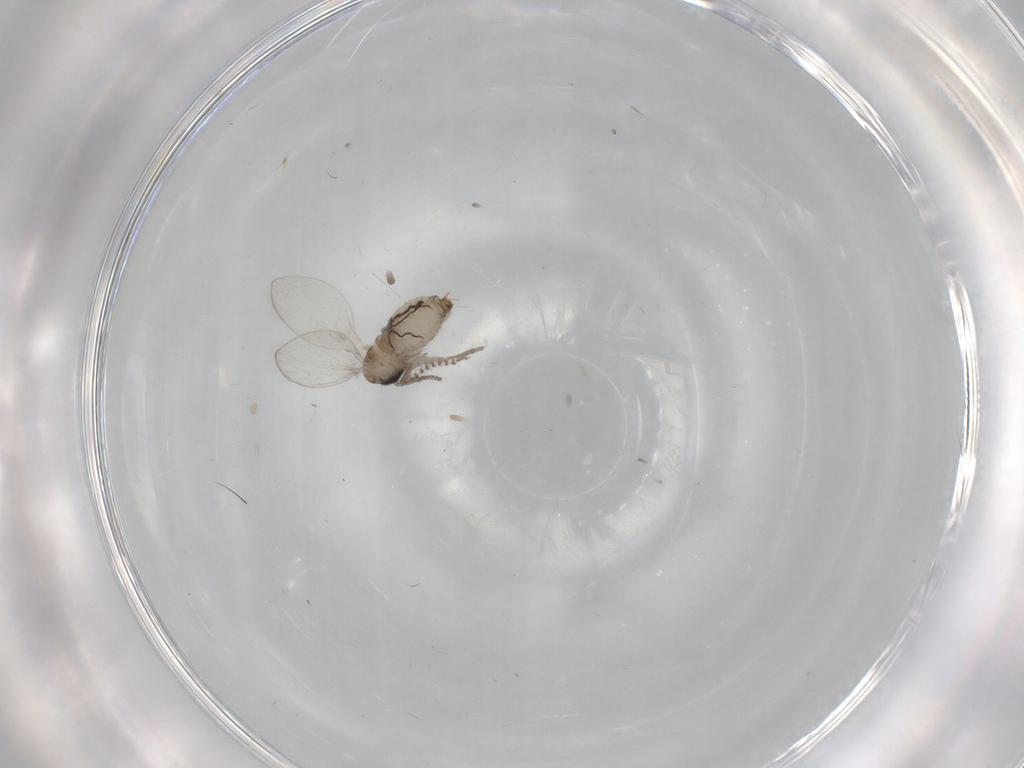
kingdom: Animalia
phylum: Arthropoda
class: Insecta
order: Diptera
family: Psychodidae
